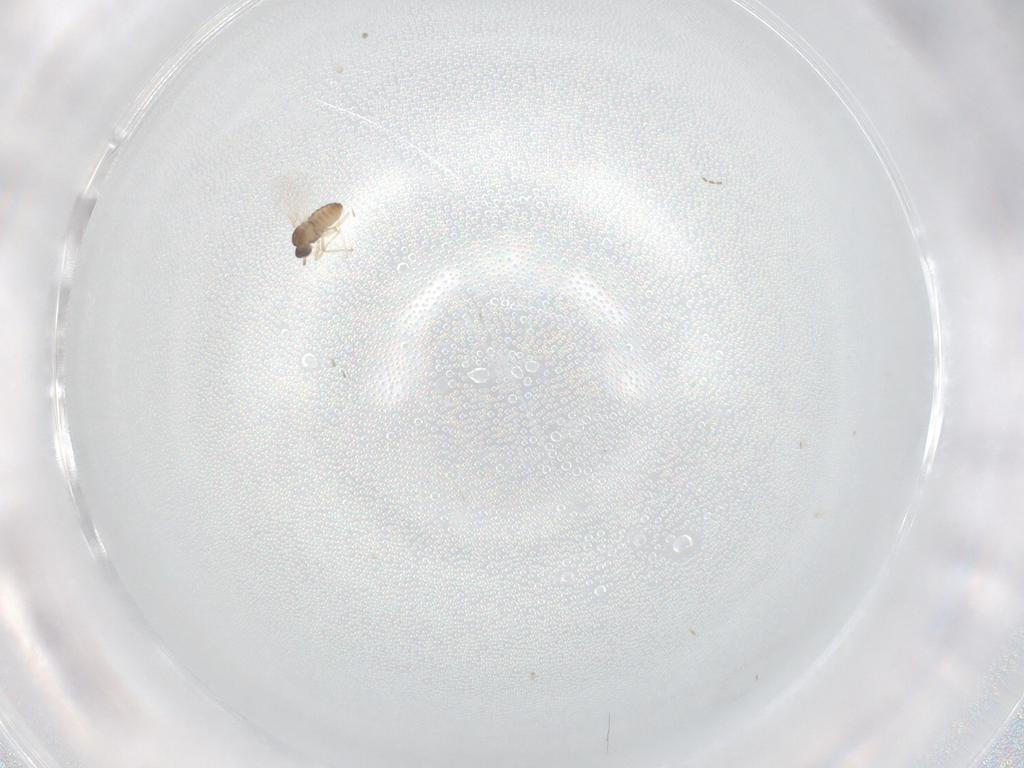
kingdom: Animalia
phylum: Arthropoda
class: Insecta
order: Diptera
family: Cecidomyiidae
